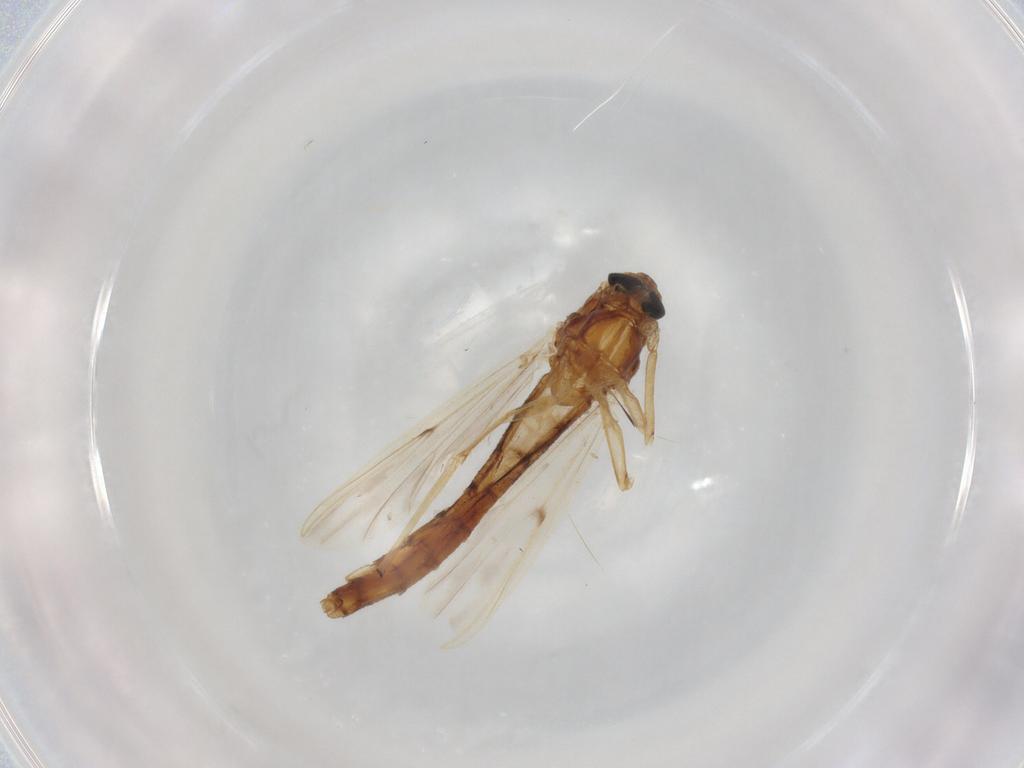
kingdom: Animalia
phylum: Arthropoda
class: Insecta
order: Diptera
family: Chironomidae
